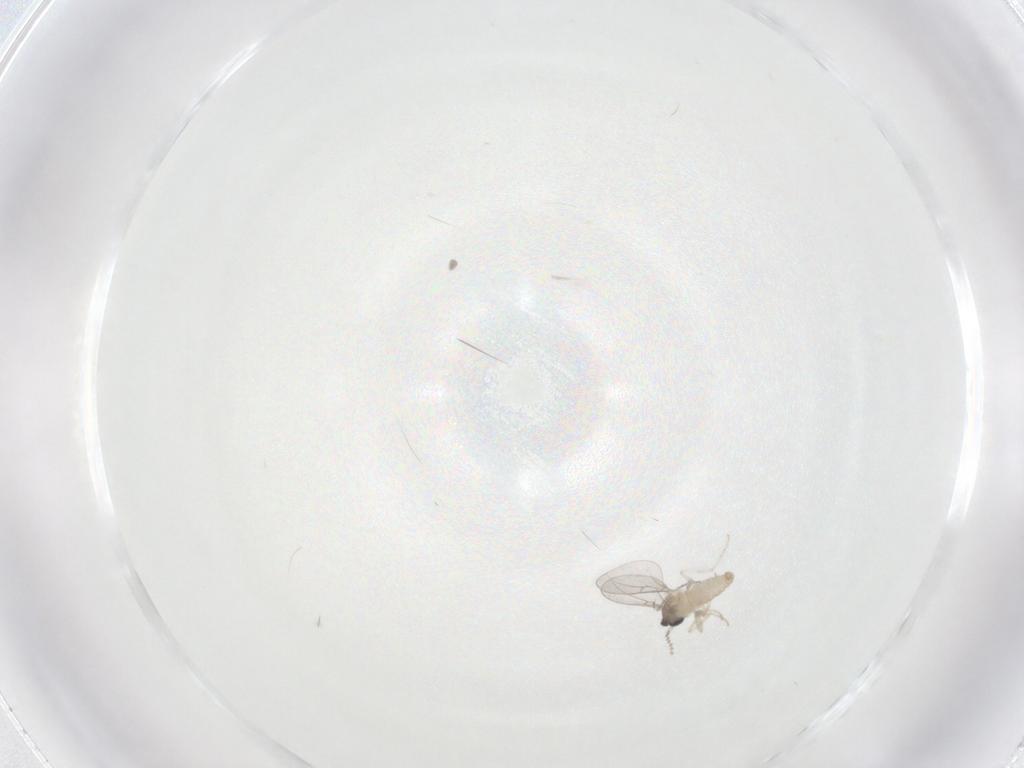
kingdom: Animalia
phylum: Arthropoda
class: Insecta
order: Diptera
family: Cecidomyiidae
